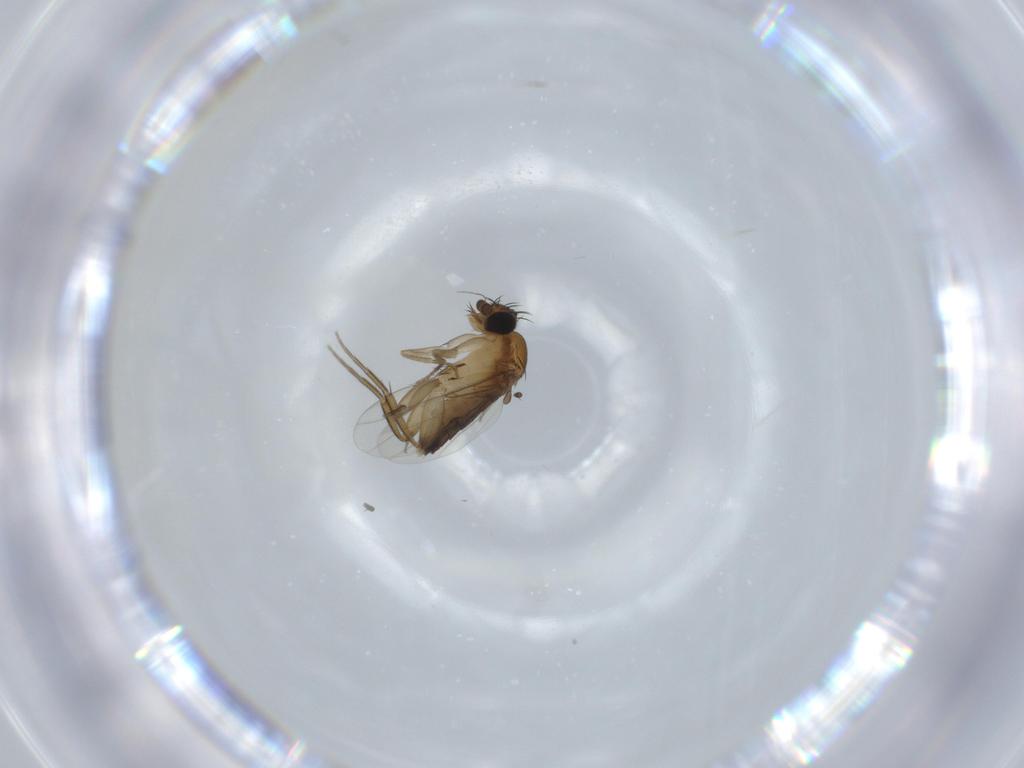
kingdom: Animalia
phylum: Arthropoda
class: Insecta
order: Diptera
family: Phoridae
